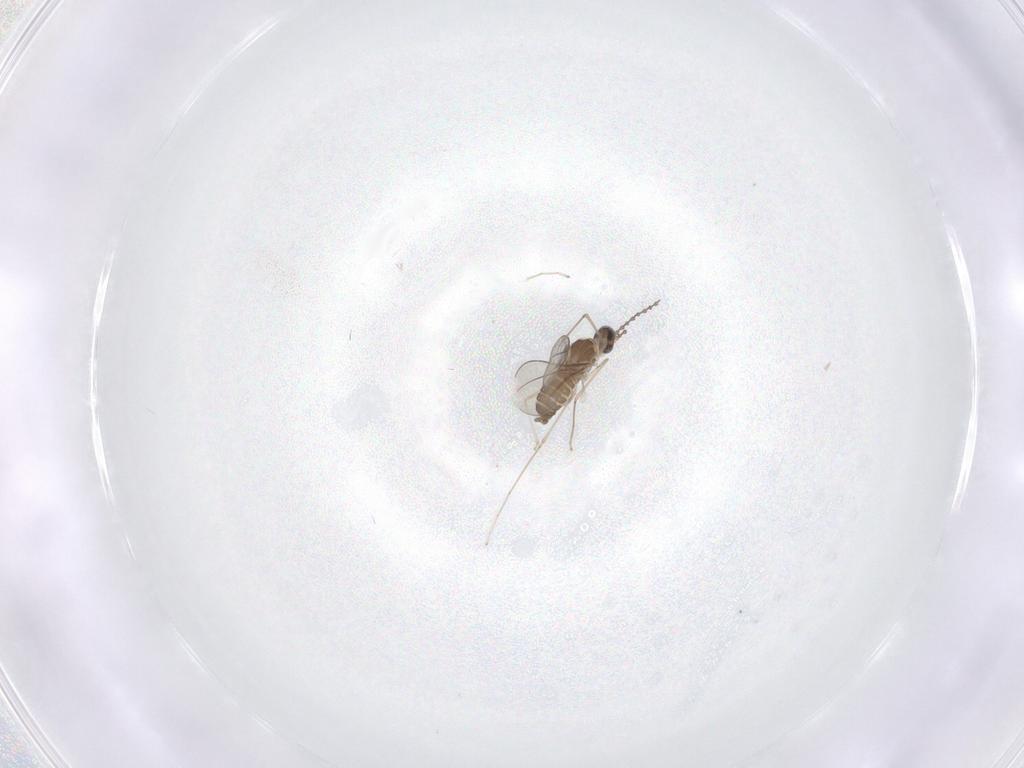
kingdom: Animalia
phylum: Arthropoda
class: Insecta
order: Diptera
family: Cecidomyiidae
